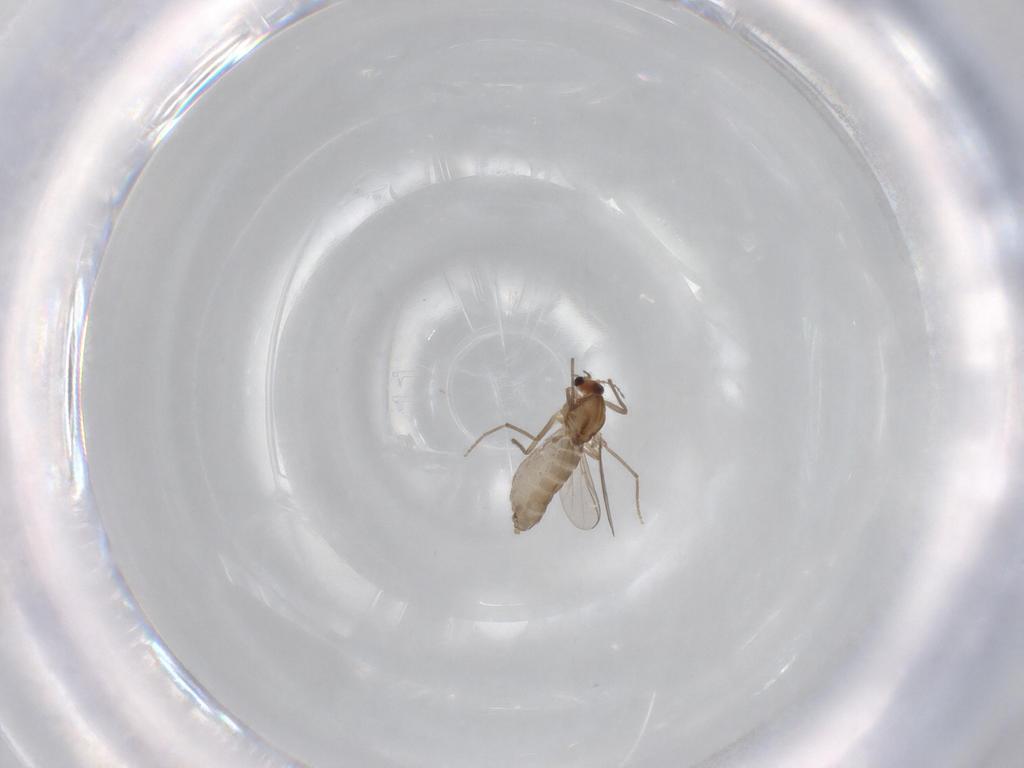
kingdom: Animalia
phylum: Arthropoda
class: Insecta
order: Diptera
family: Chironomidae
